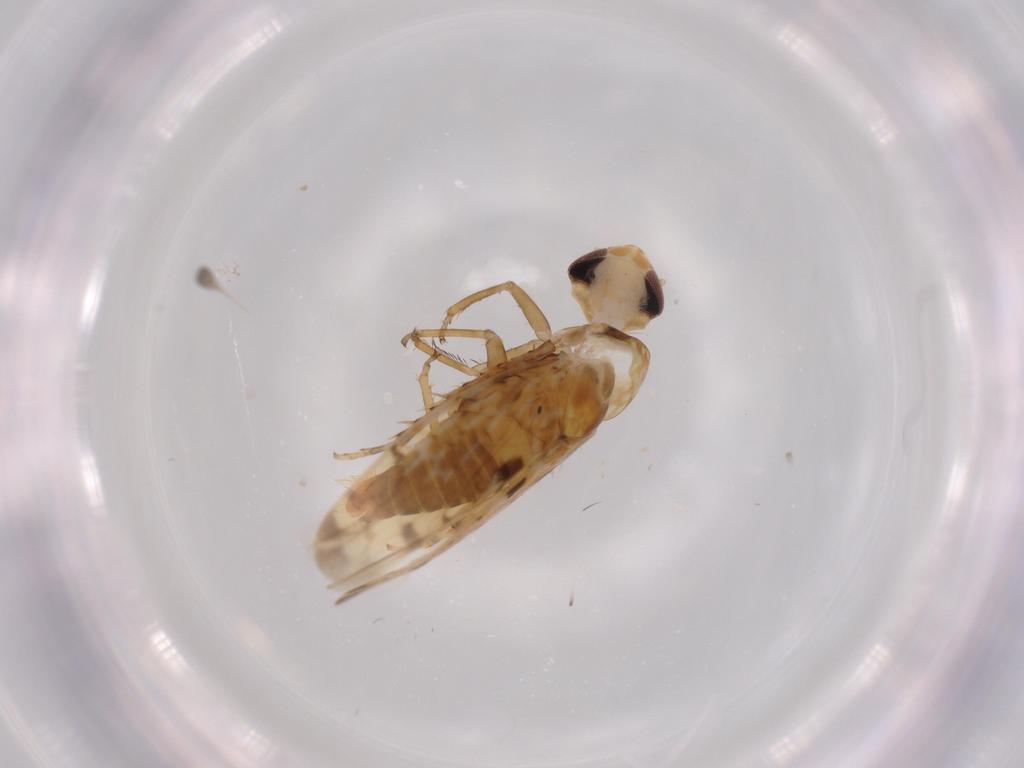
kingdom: Animalia
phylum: Arthropoda
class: Insecta
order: Hemiptera
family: Cicadellidae
